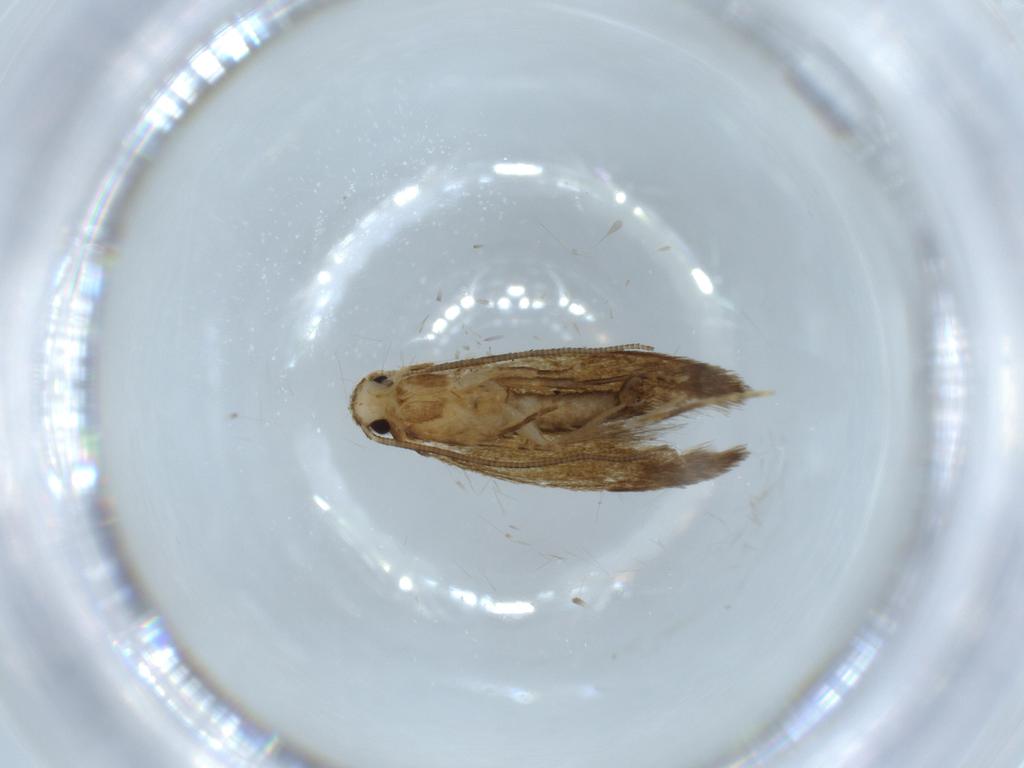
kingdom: Animalia
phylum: Arthropoda
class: Insecta
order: Lepidoptera
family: Tineidae
